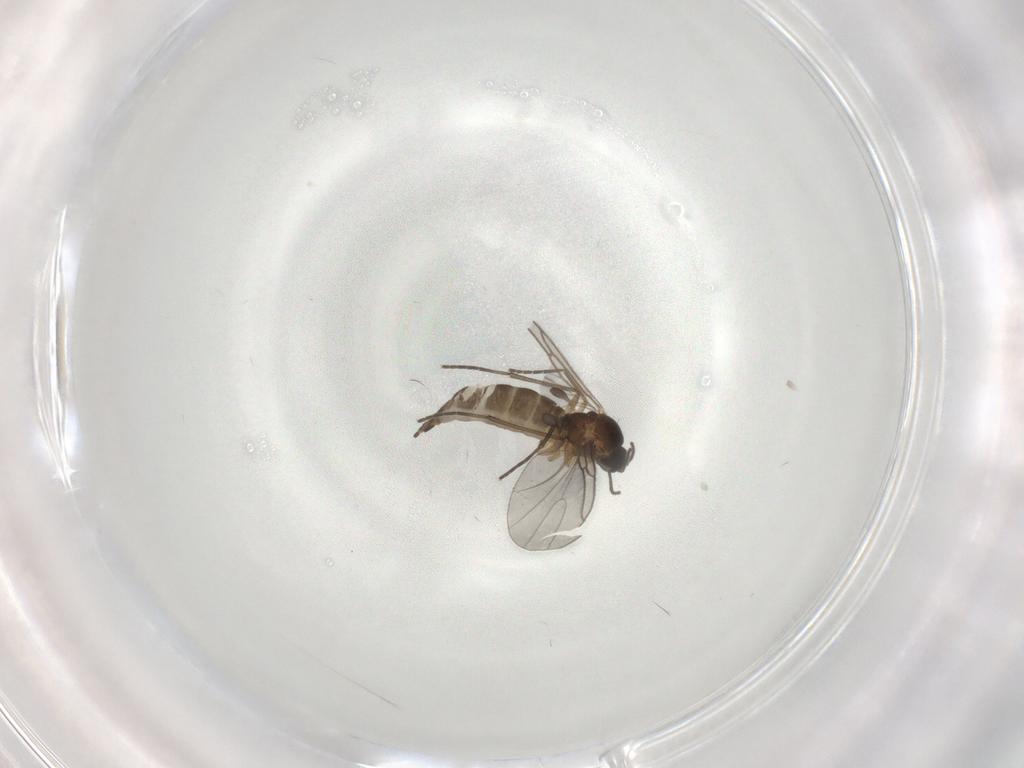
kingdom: Animalia
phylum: Arthropoda
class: Insecta
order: Diptera
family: Sciaridae
